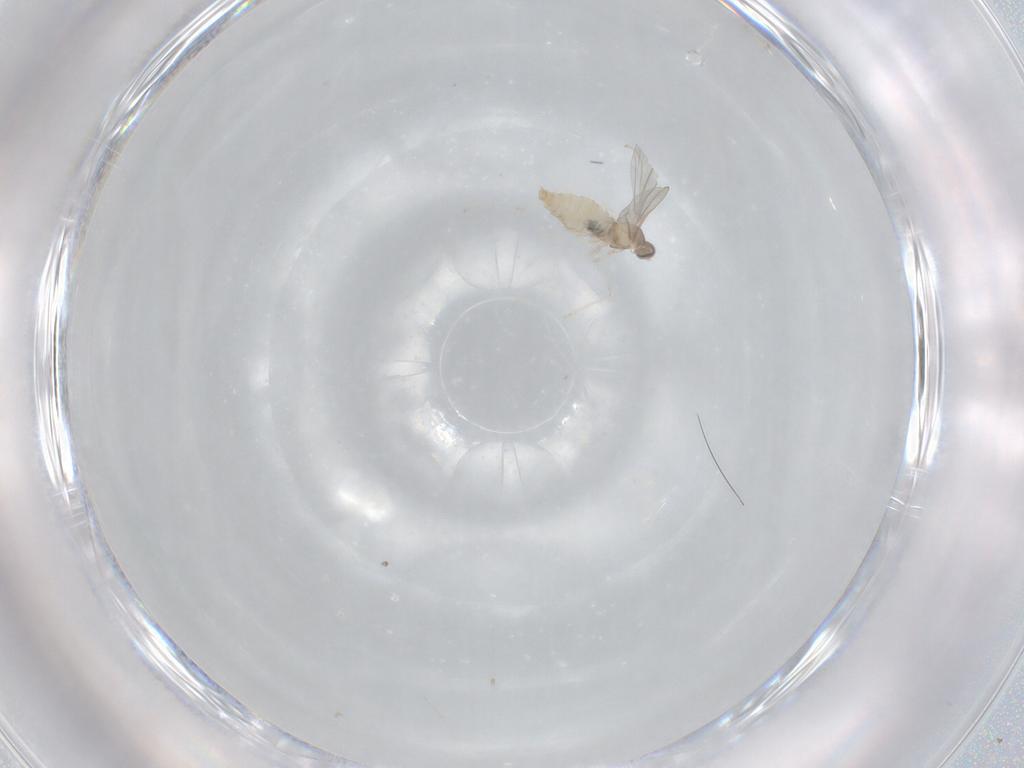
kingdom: Animalia
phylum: Arthropoda
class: Insecta
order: Diptera
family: Cecidomyiidae
